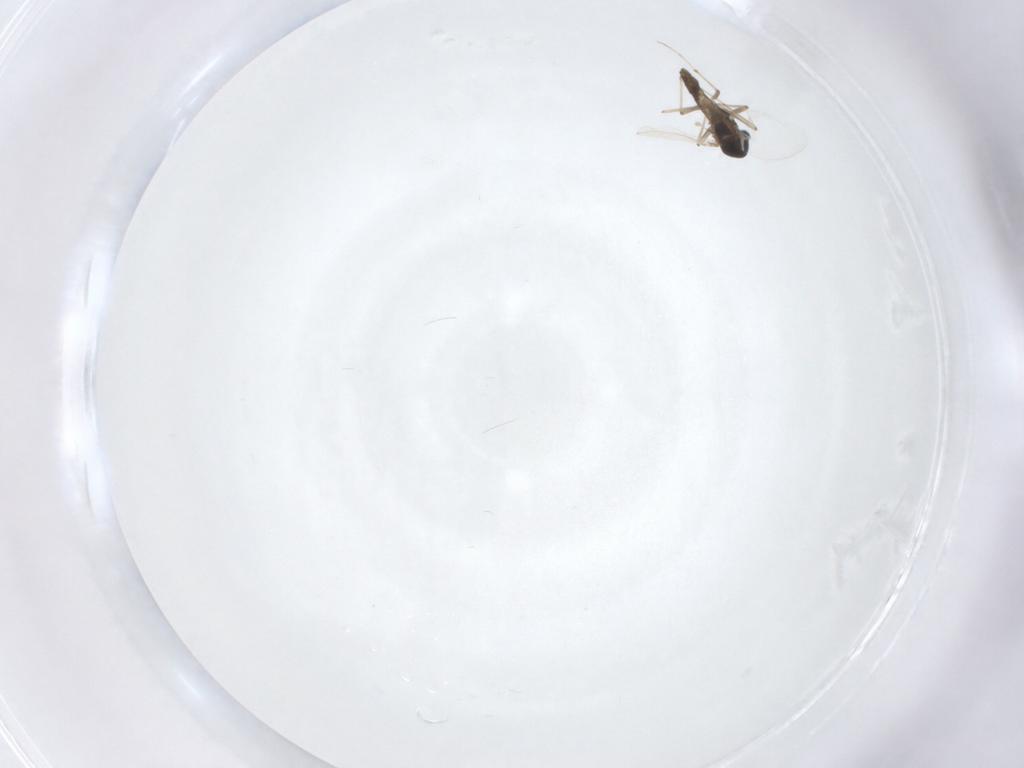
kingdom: Animalia
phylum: Arthropoda
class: Insecta
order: Diptera
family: Chironomidae
